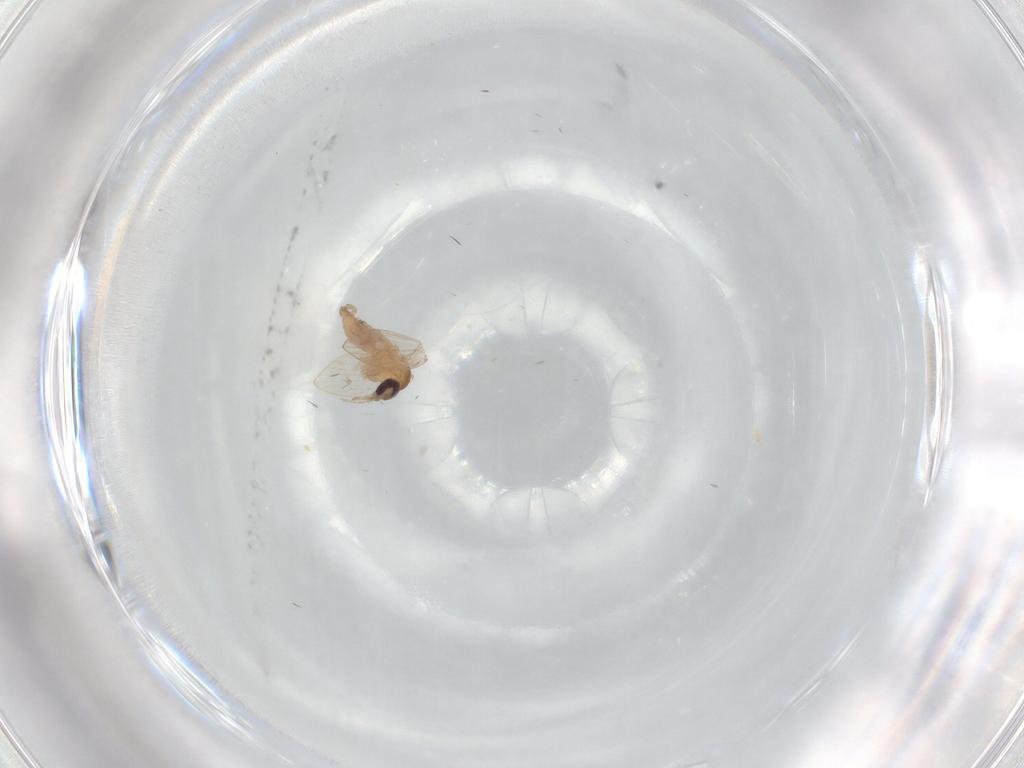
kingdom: Animalia
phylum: Arthropoda
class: Insecta
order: Diptera
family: Psychodidae
